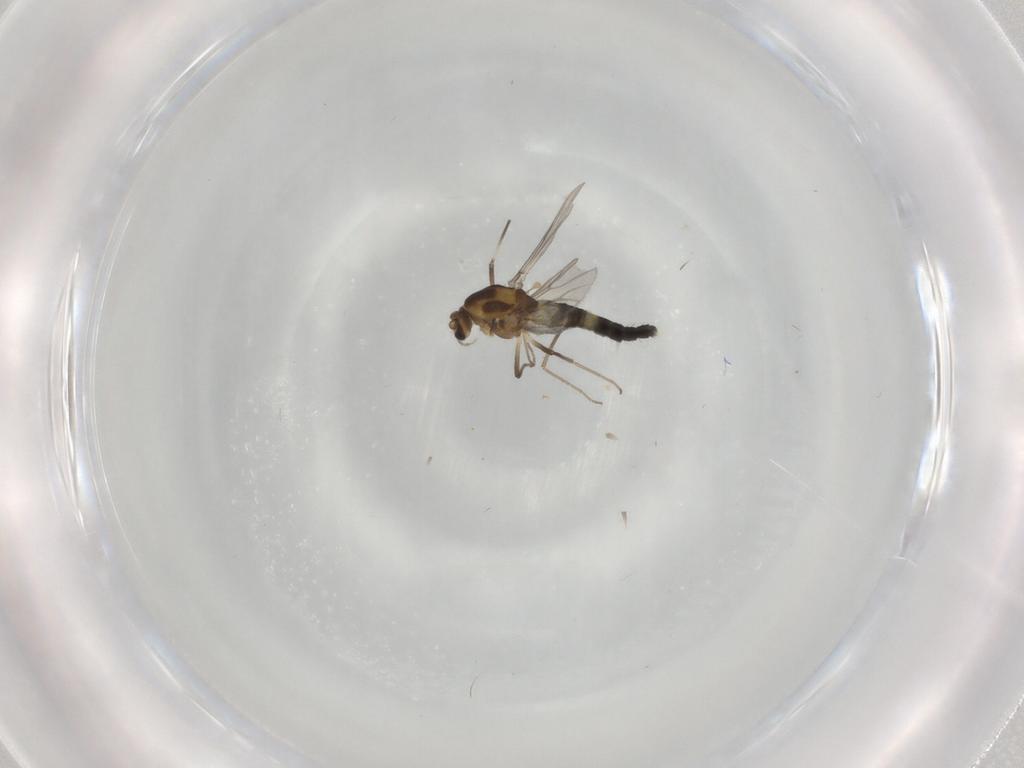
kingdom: Animalia
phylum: Arthropoda
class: Insecta
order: Diptera
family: Chironomidae
